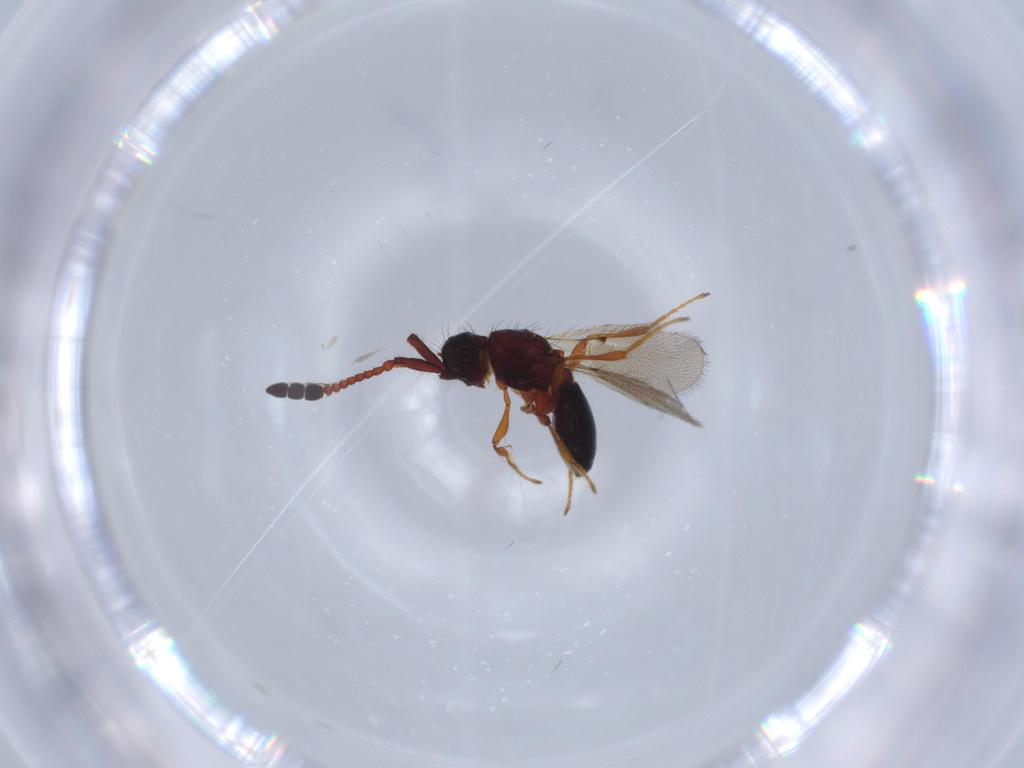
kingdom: Animalia
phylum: Arthropoda
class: Insecta
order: Hymenoptera
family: Diapriidae
